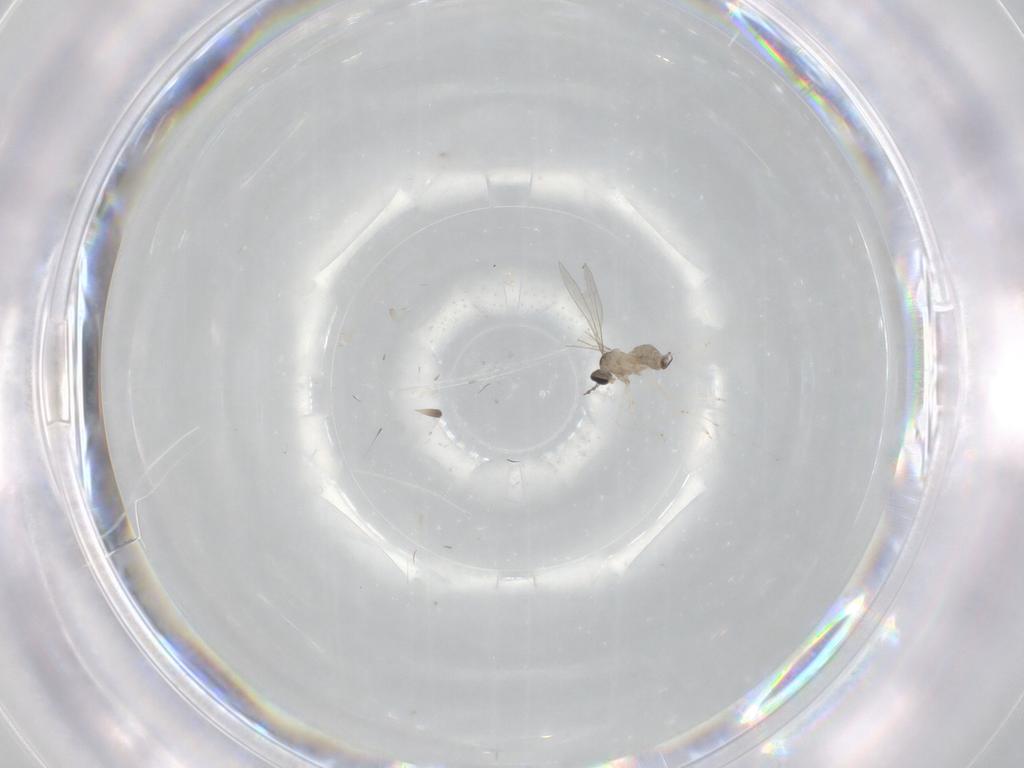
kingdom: Animalia
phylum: Arthropoda
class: Insecta
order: Diptera
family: Cecidomyiidae
